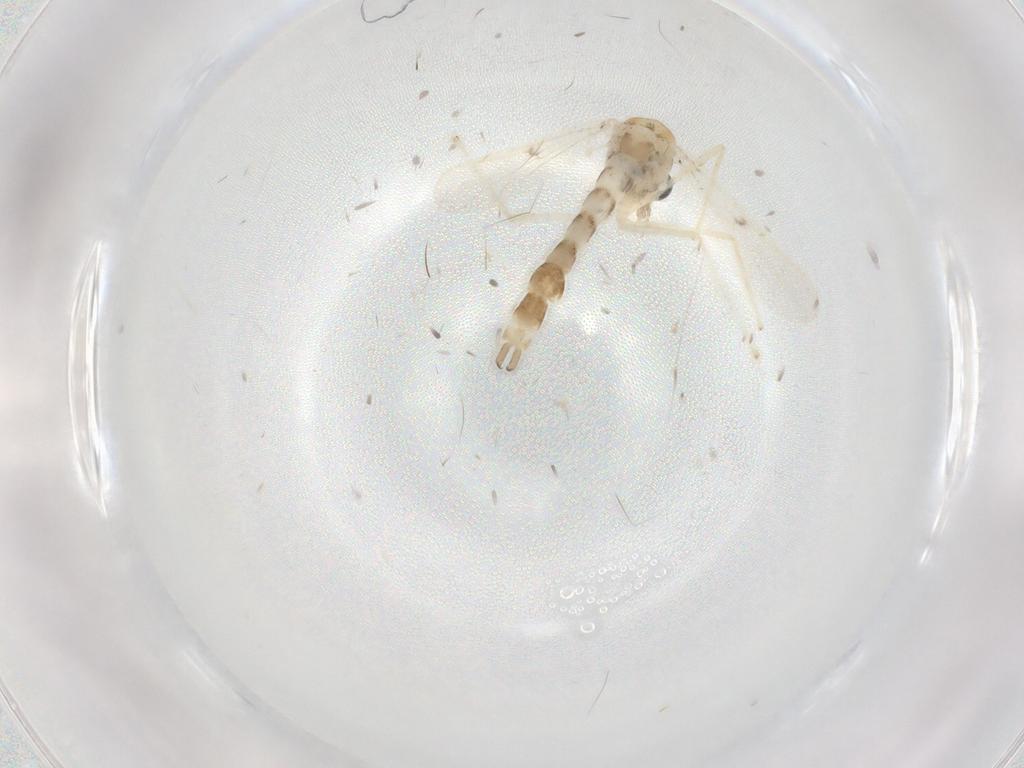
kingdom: Animalia
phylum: Arthropoda
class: Insecta
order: Diptera
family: Chironomidae
